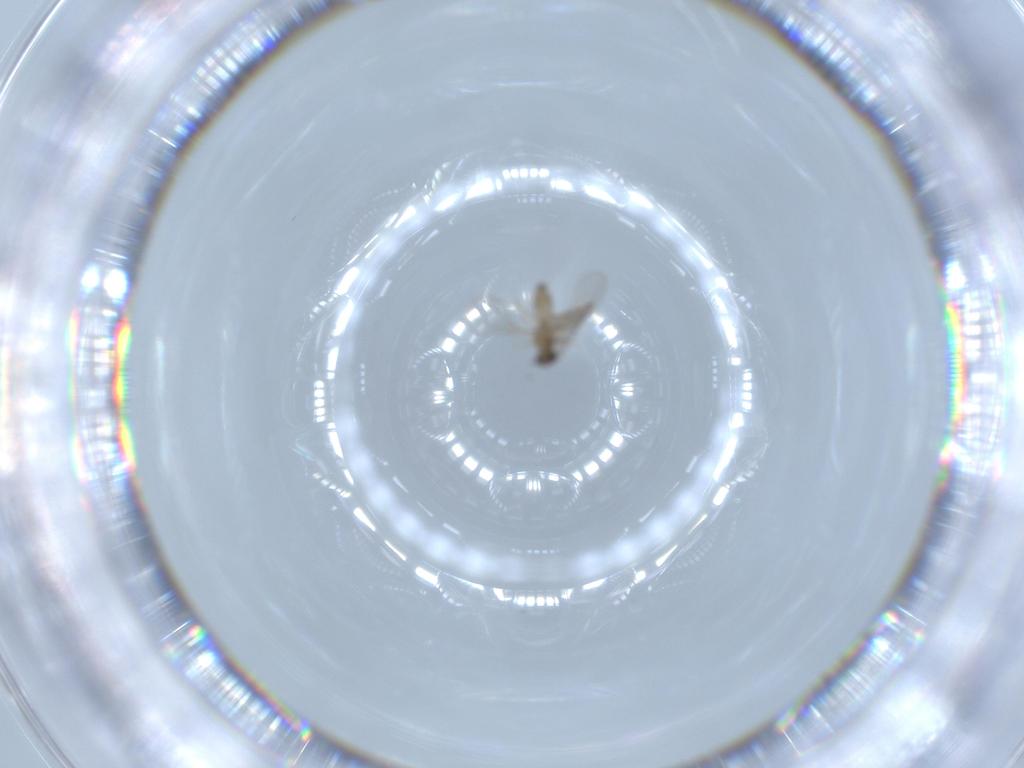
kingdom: Animalia
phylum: Arthropoda
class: Insecta
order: Diptera
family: Cecidomyiidae
